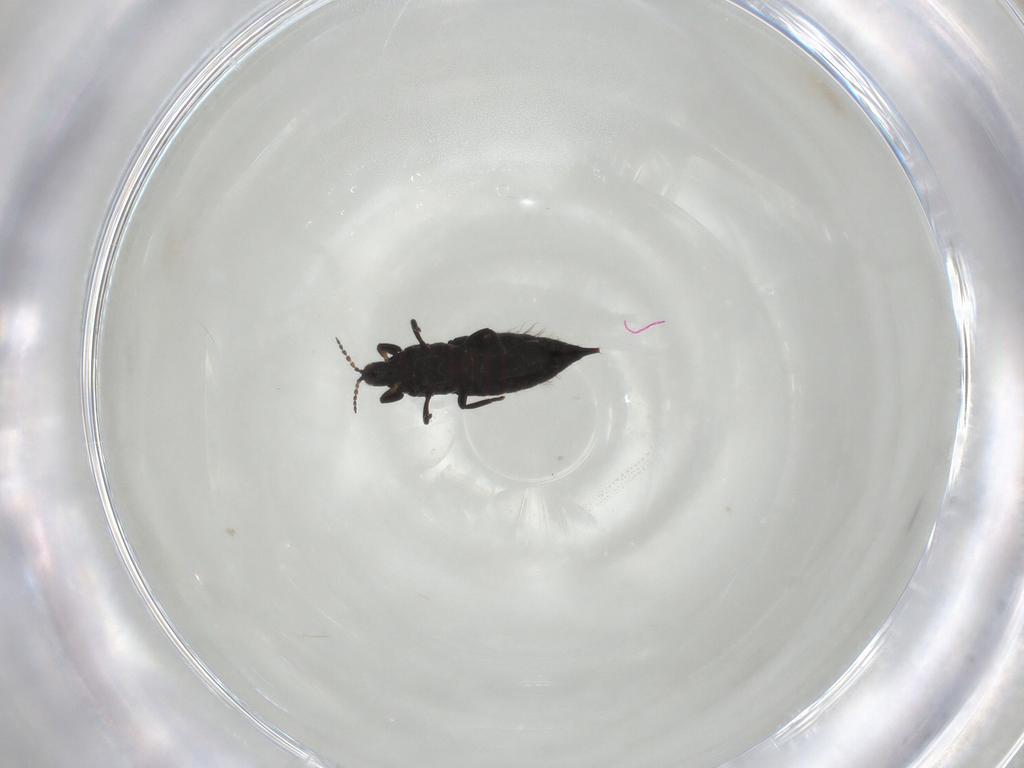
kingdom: Animalia
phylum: Arthropoda
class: Insecta
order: Thysanoptera
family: Phlaeothripidae
